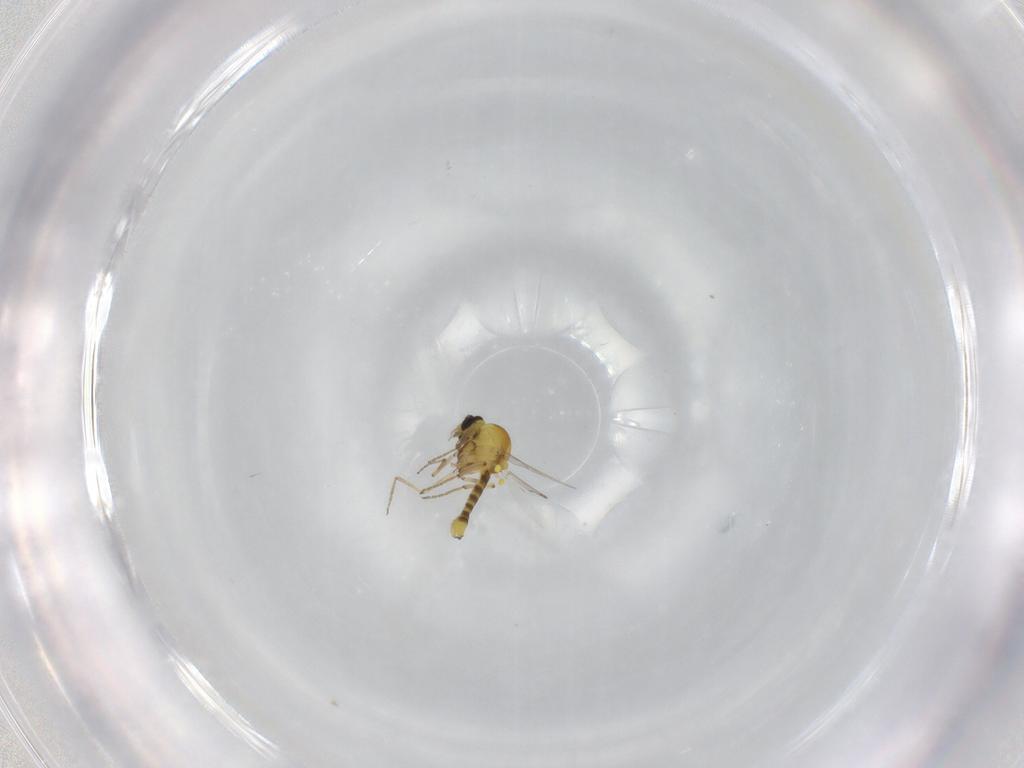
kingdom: Animalia
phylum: Arthropoda
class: Insecta
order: Diptera
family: Ceratopogonidae
